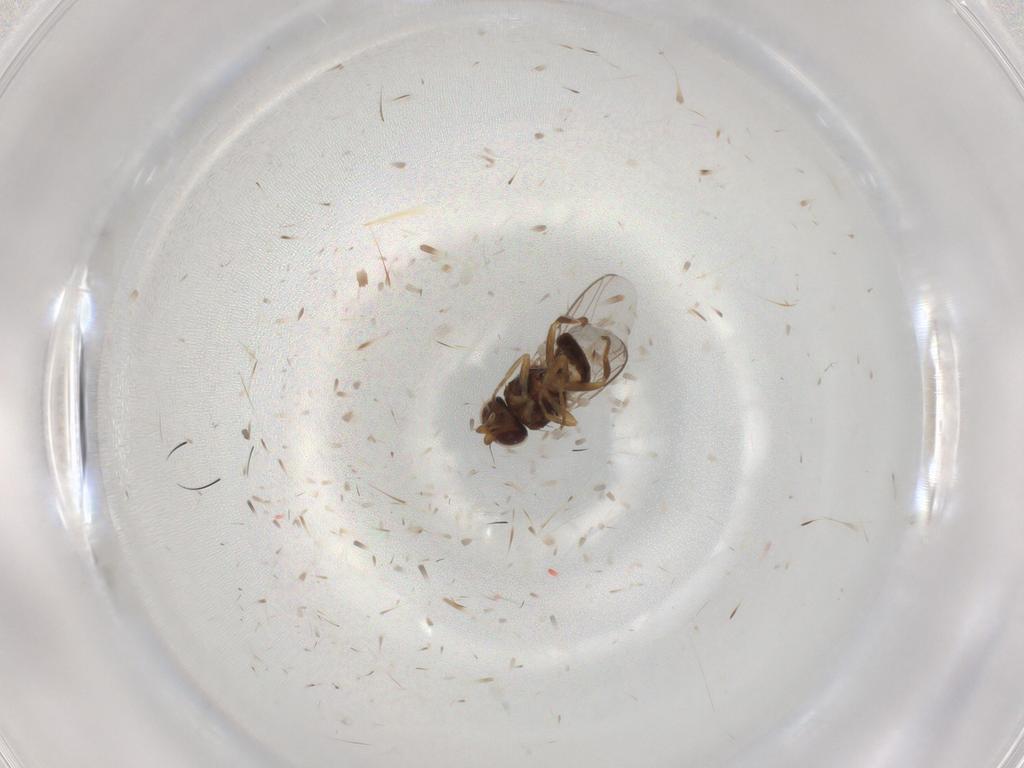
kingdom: Animalia
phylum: Arthropoda
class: Insecta
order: Diptera
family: Chloropidae
